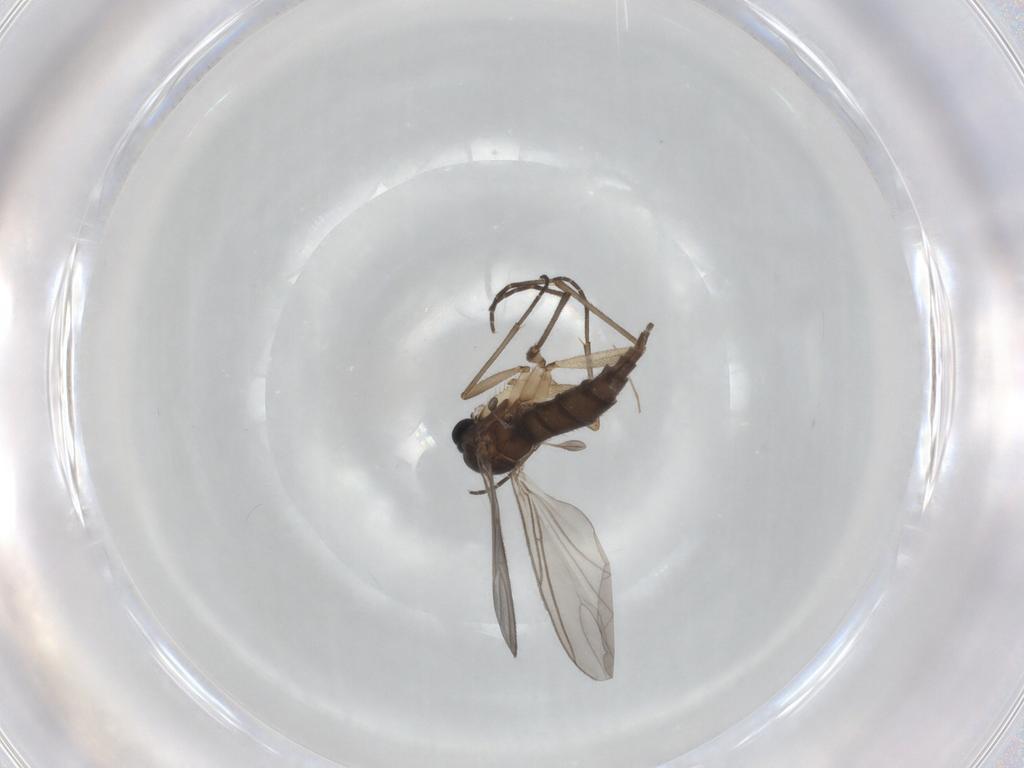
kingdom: Animalia
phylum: Arthropoda
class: Insecta
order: Diptera
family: Sciaridae
